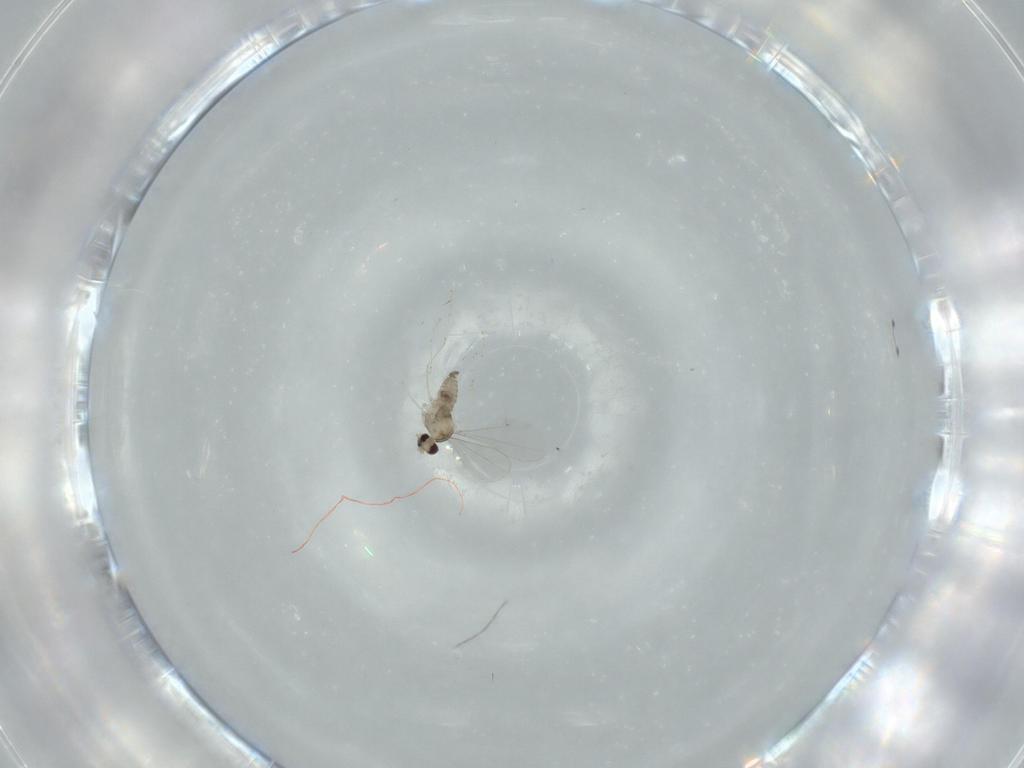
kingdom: Animalia
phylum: Arthropoda
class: Insecta
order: Diptera
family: Cecidomyiidae
